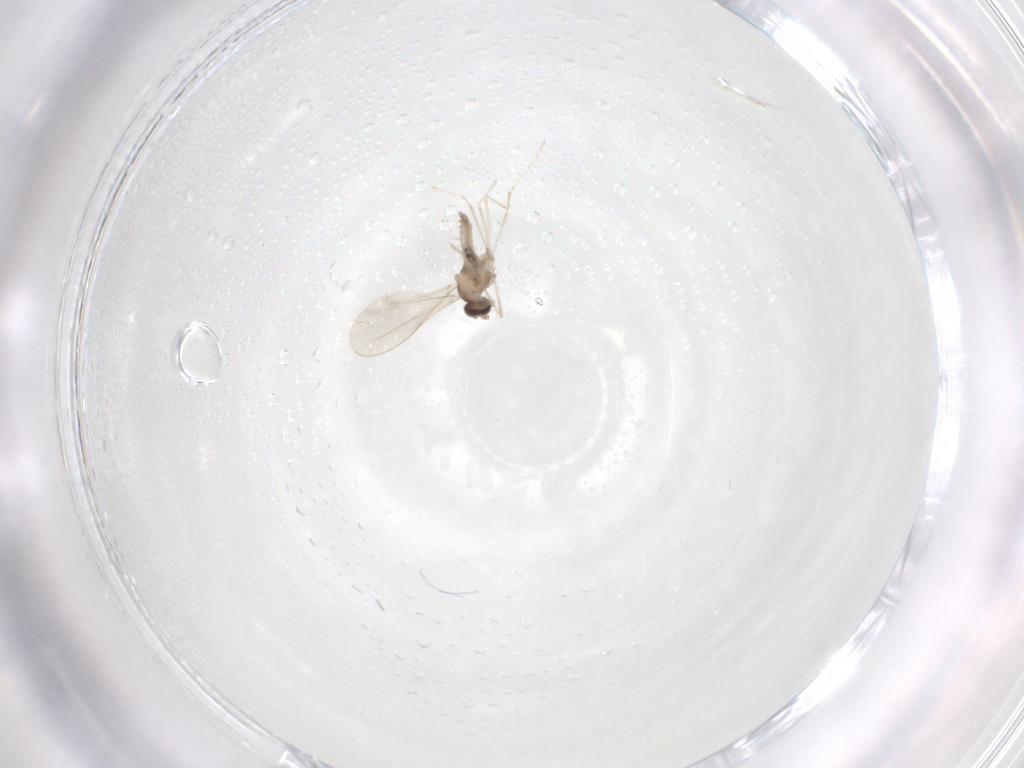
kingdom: Animalia
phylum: Arthropoda
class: Insecta
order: Diptera
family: Cecidomyiidae
